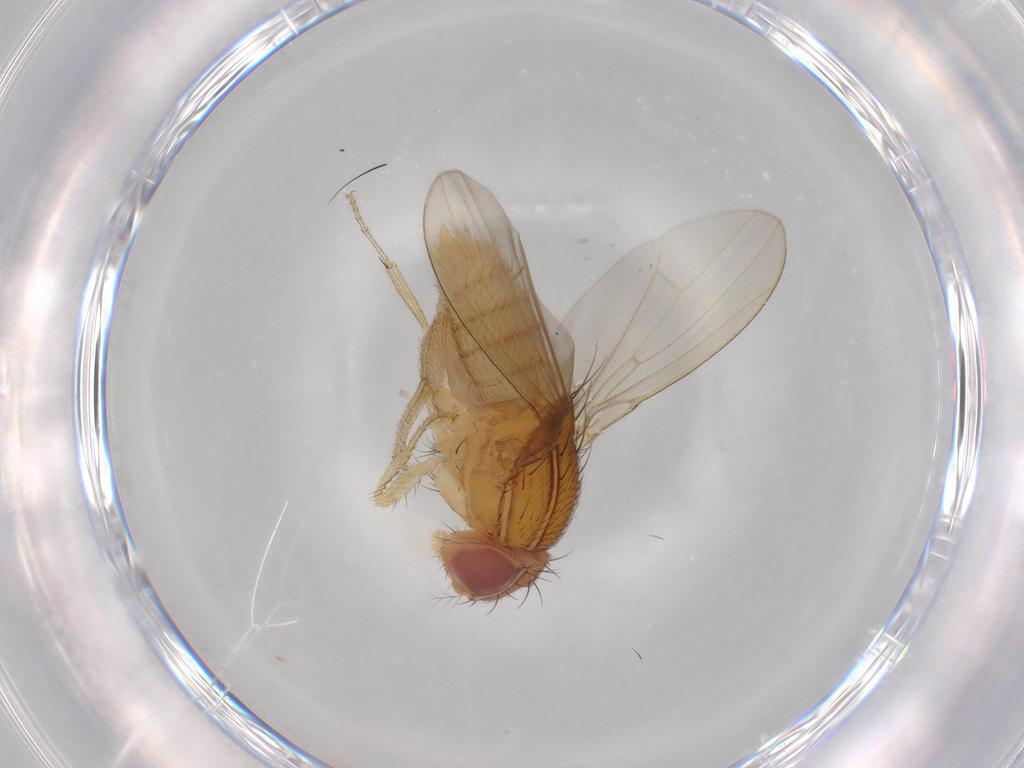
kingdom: Animalia
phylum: Arthropoda
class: Insecta
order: Diptera
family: Drosophilidae
